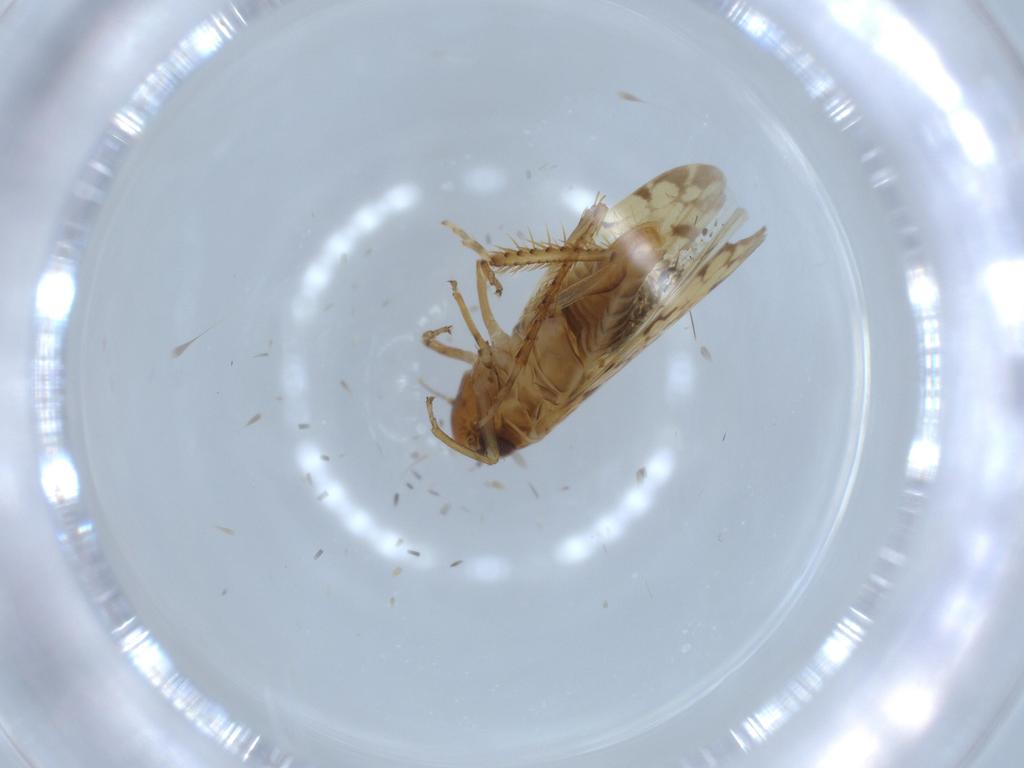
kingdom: Animalia
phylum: Arthropoda
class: Insecta
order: Hemiptera
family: Cicadellidae
